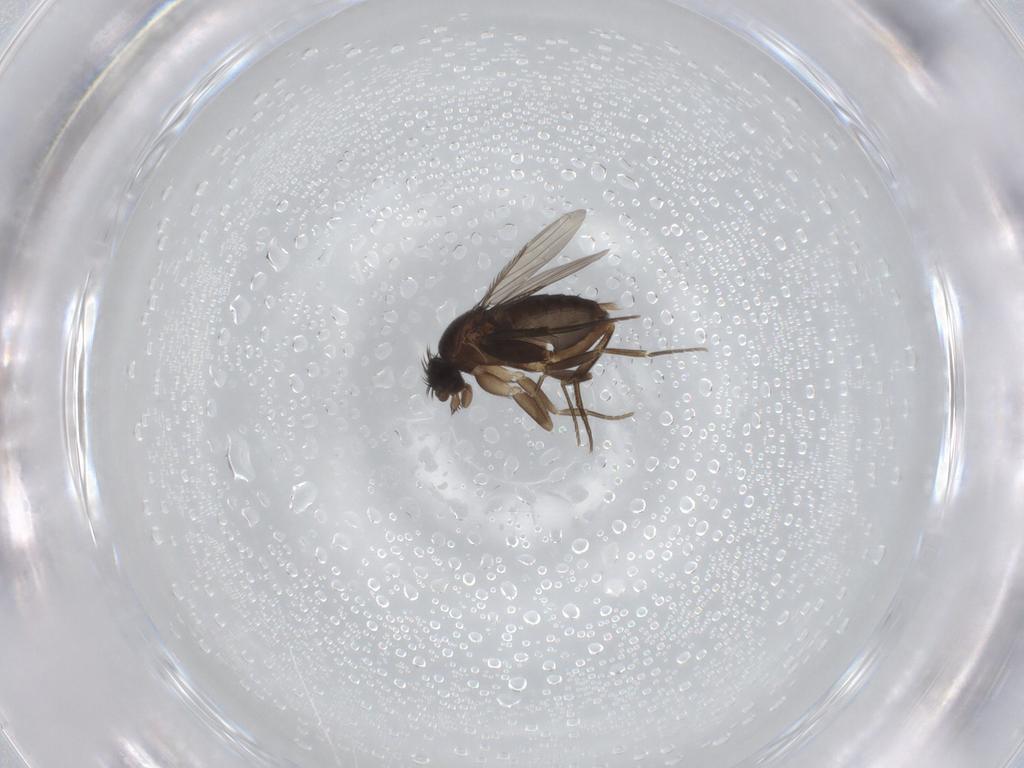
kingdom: Animalia
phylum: Arthropoda
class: Insecta
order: Diptera
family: Phoridae
